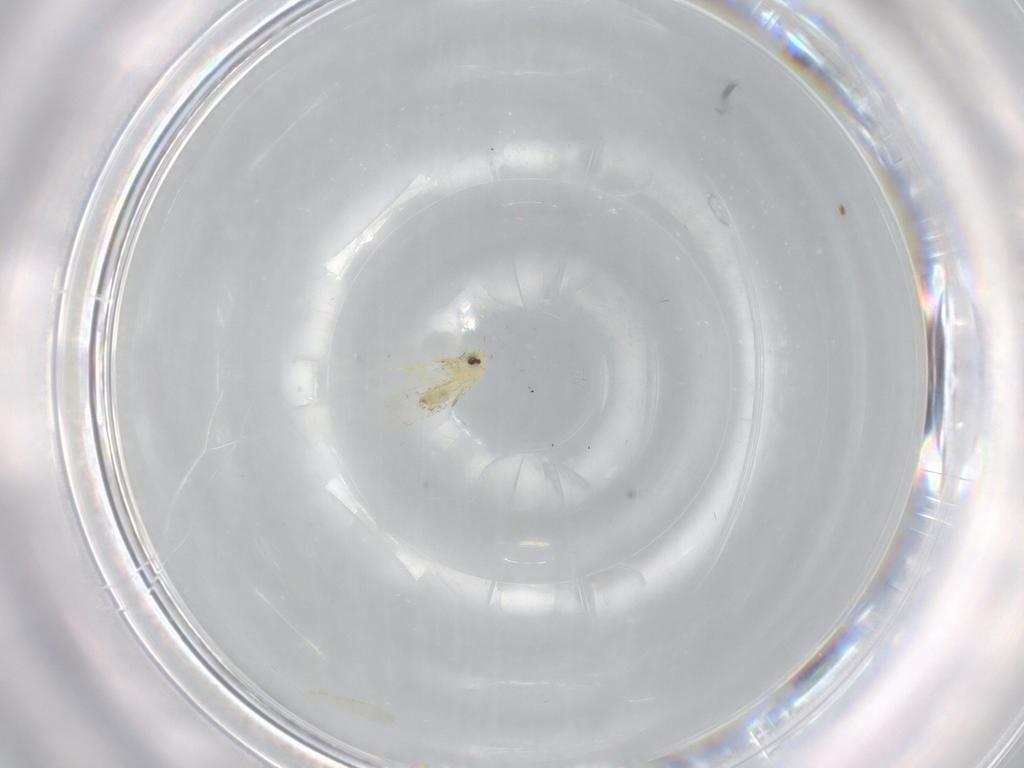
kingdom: Animalia
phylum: Arthropoda
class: Insecta
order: Hemiptera
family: Aleyrodidae
